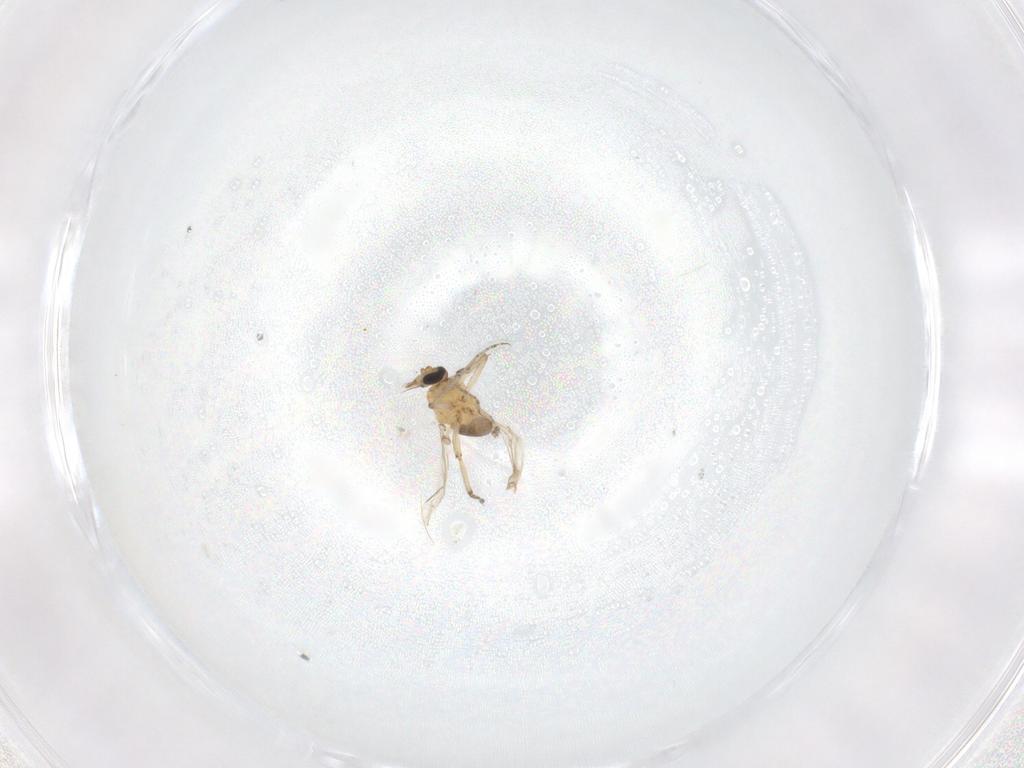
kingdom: Animalia
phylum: Arthropoda
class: Insecta
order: Diptera
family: Ceratopogonidae
